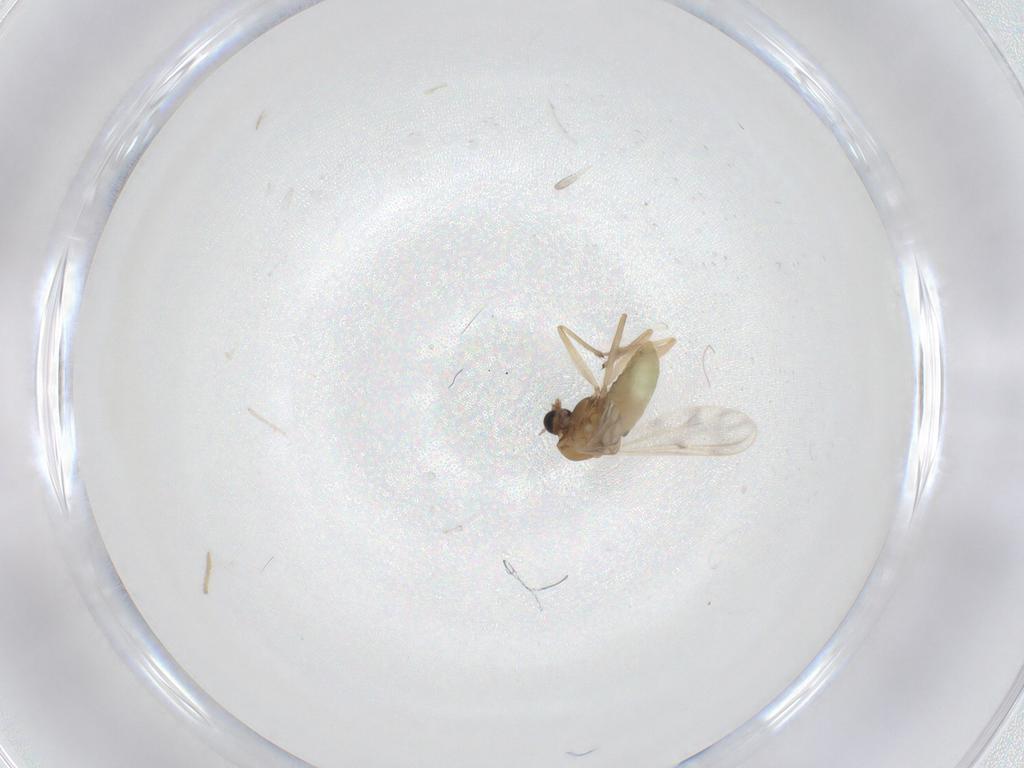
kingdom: Animalia
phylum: Arthropoda
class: Insecta
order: Diptera
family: Chironomidae
